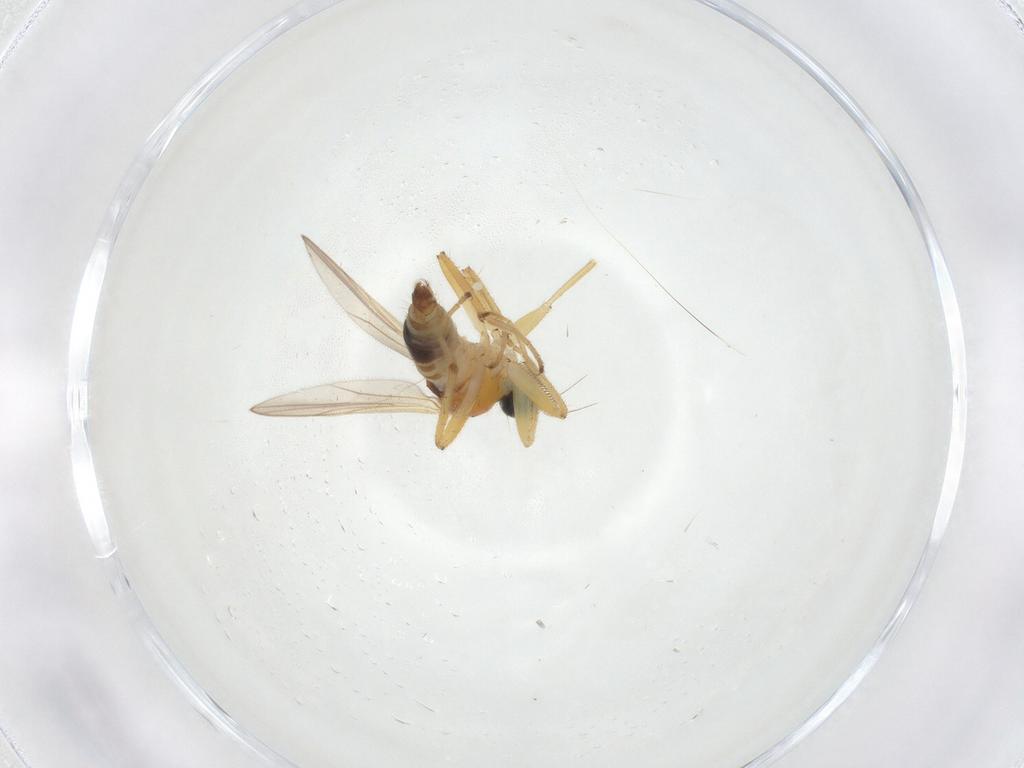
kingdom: Animalia
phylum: Arthropoda
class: Insecta
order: Diptera
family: Hybotidae
